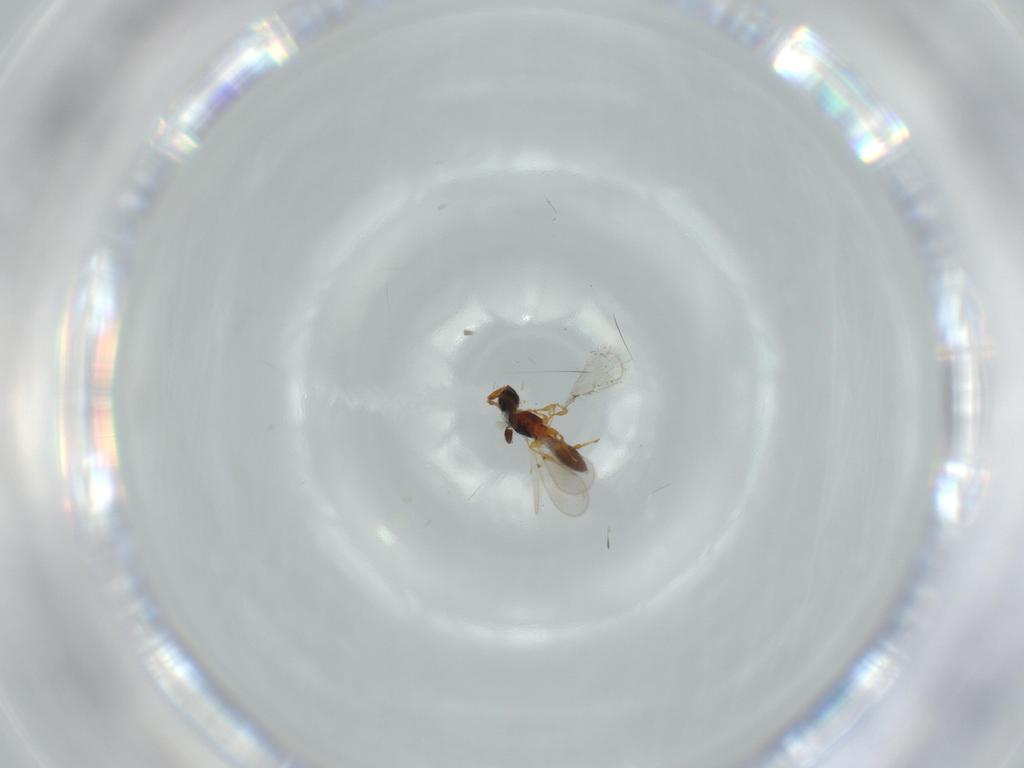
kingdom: Animalia
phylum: Arthropoda
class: Insecta
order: Hymenoptera
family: Diapriidae
